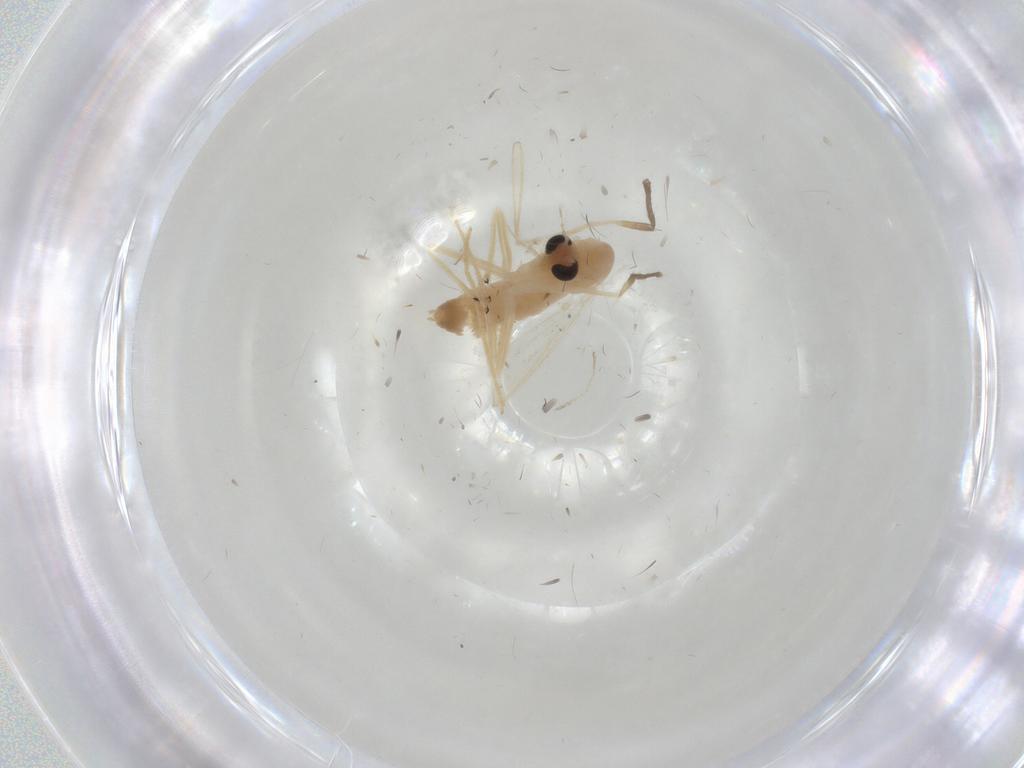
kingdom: Animalia
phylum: Arthropoda
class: Insecta
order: Diptera
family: Chironomidae
